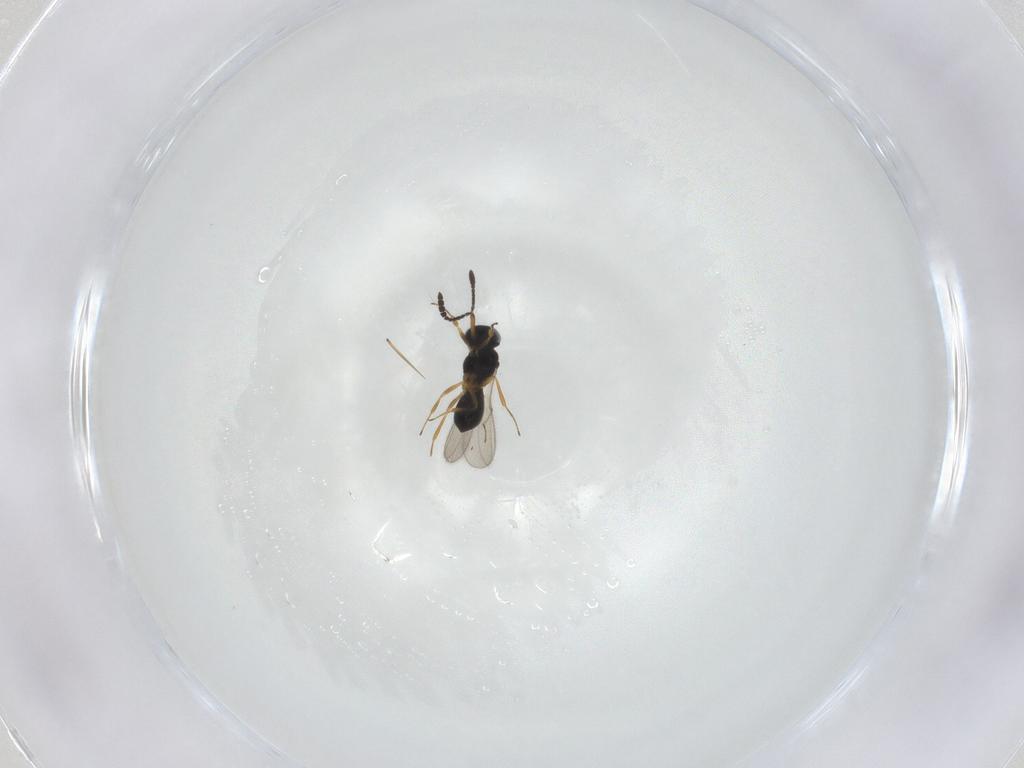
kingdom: Animalia
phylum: Arthropoda
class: Insecta
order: Hymenoptera
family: Scelionidae
